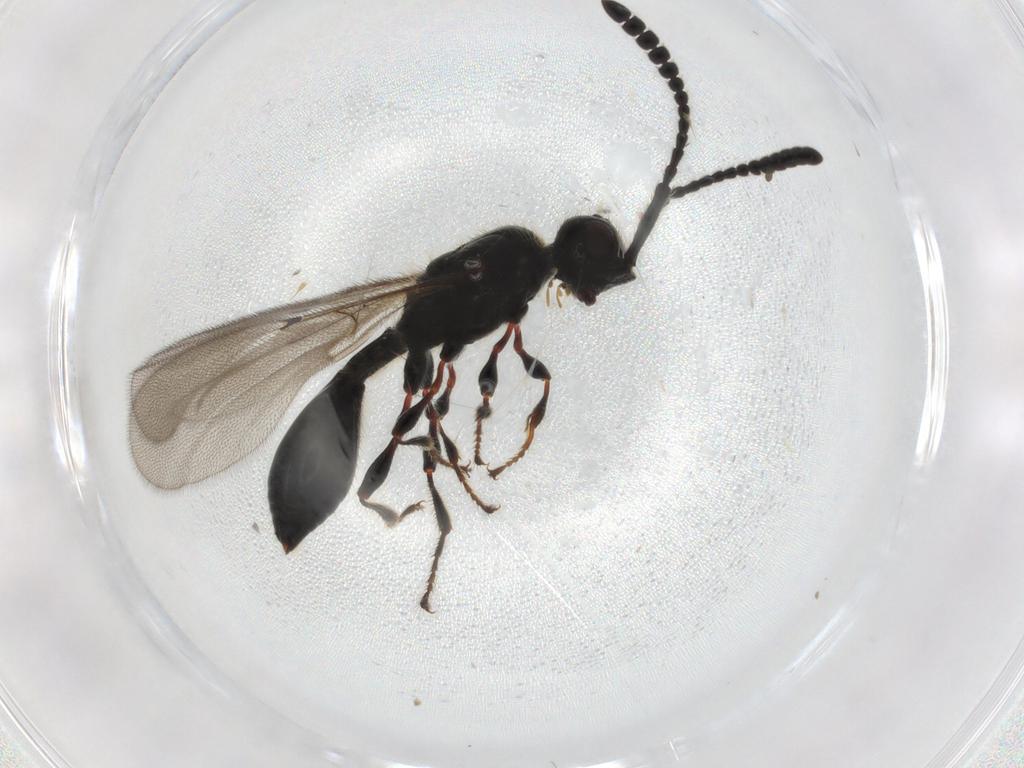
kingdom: Animalia
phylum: Arthropoda
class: Insecta
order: Hymenoptera
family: Diapriidae
